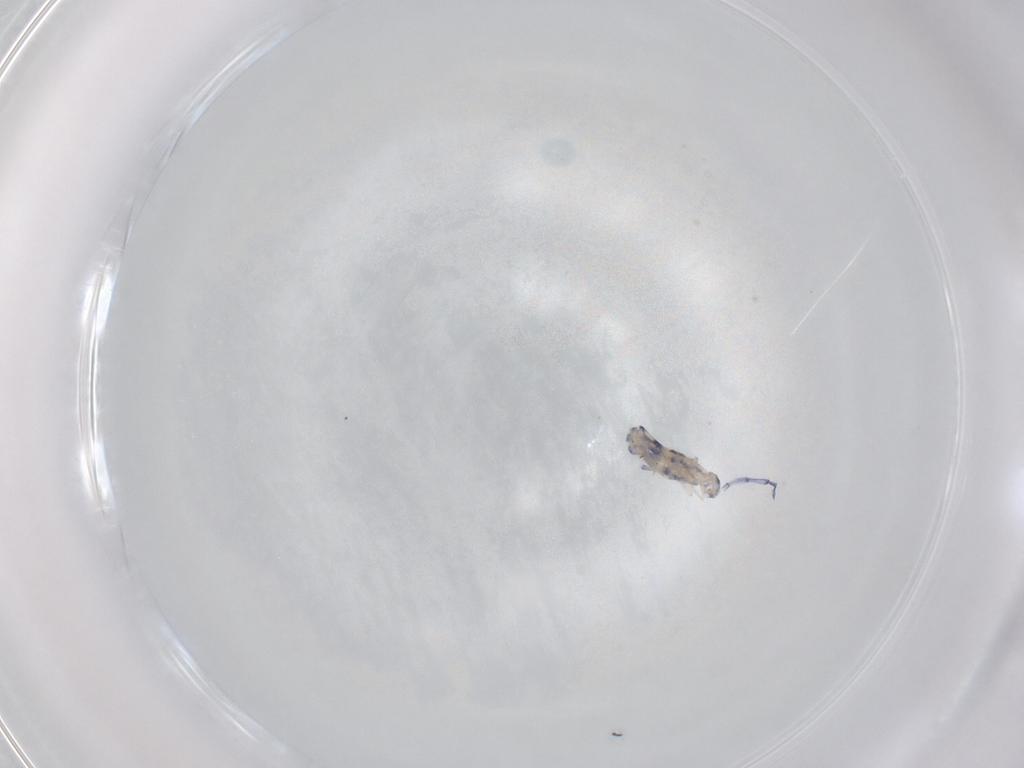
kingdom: Animalia
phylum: Arthropoda
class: Collembola
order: Entomobryomorpha
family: Entomobryidae
